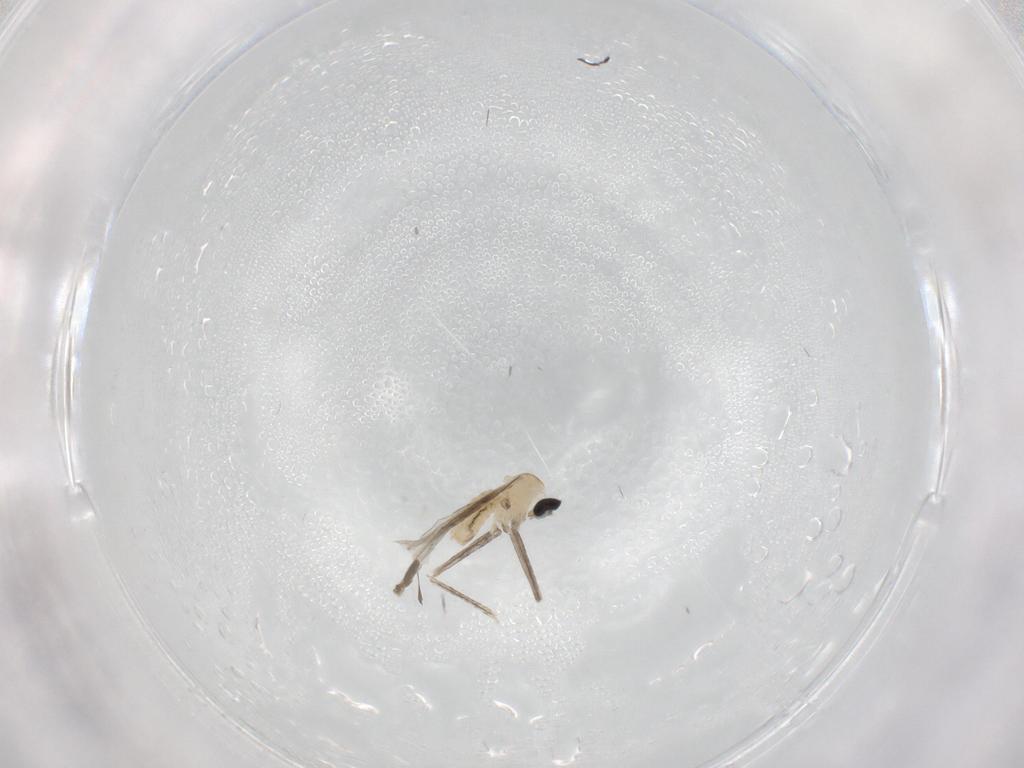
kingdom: Animalia
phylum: Arthropoda
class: Insecta
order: Diptera
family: Cecidomyiidae
